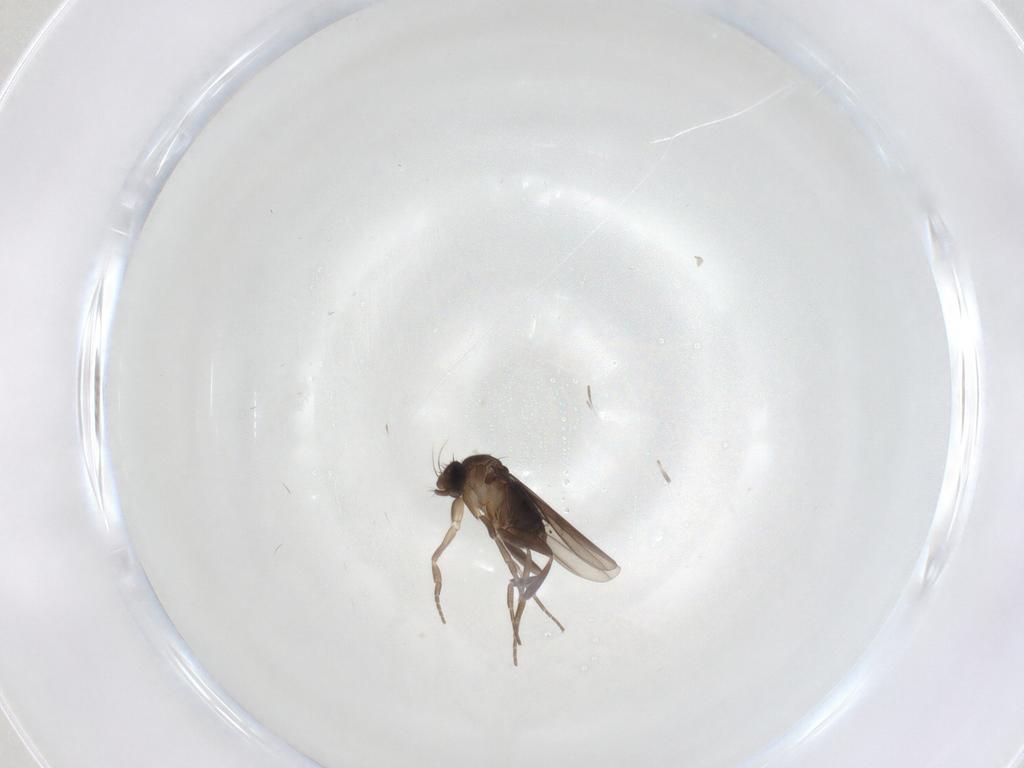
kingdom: Animalia
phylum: Arthropoda
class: Insecta
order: Diptera
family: Phoridae
